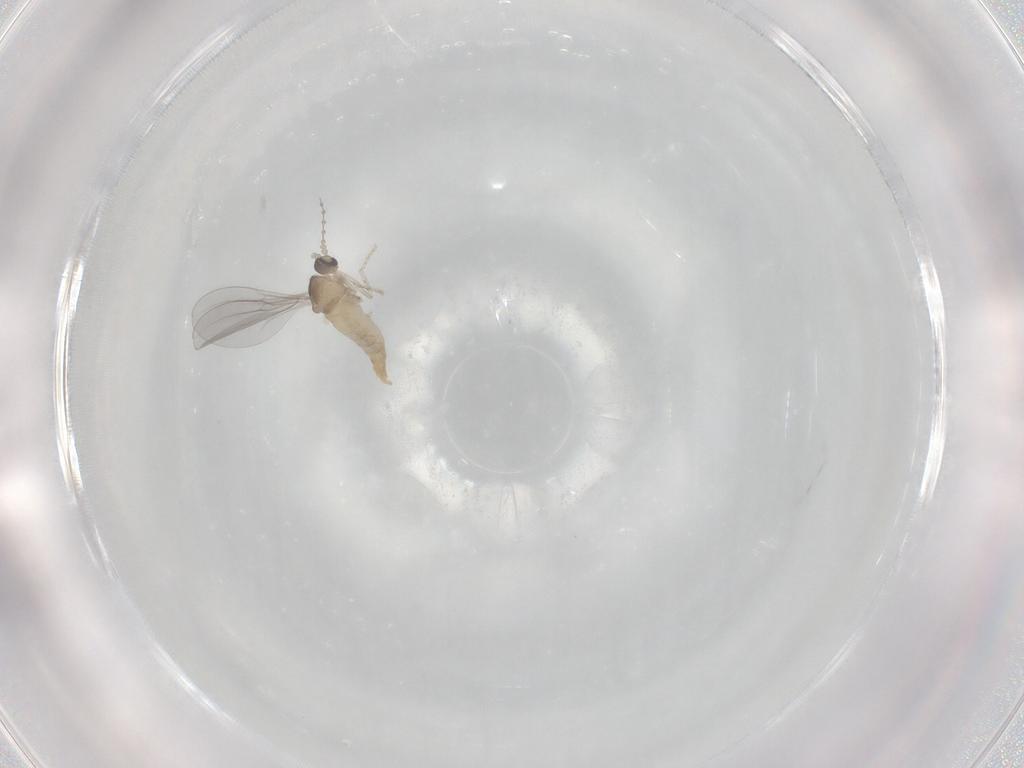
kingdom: Animalia
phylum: Arthropoda
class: Insecta
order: Diptera
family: Cecidomyiidae
